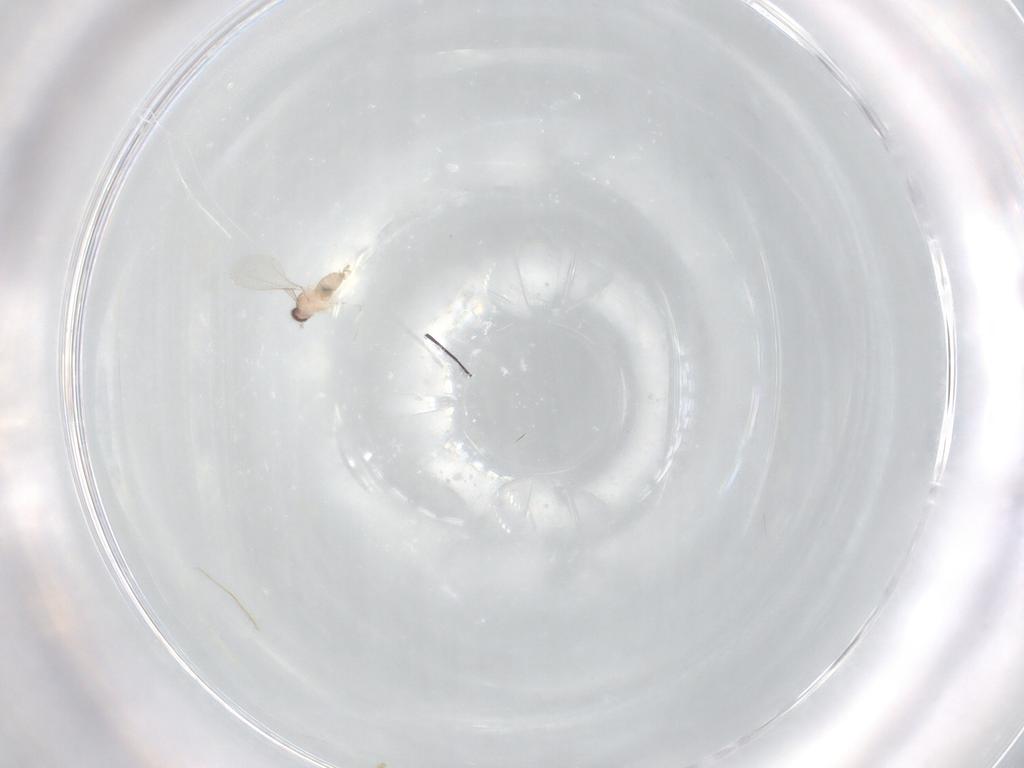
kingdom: Animalia
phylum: Arthropoda
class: Insecta
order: Diptera
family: Cecidomyiidae
